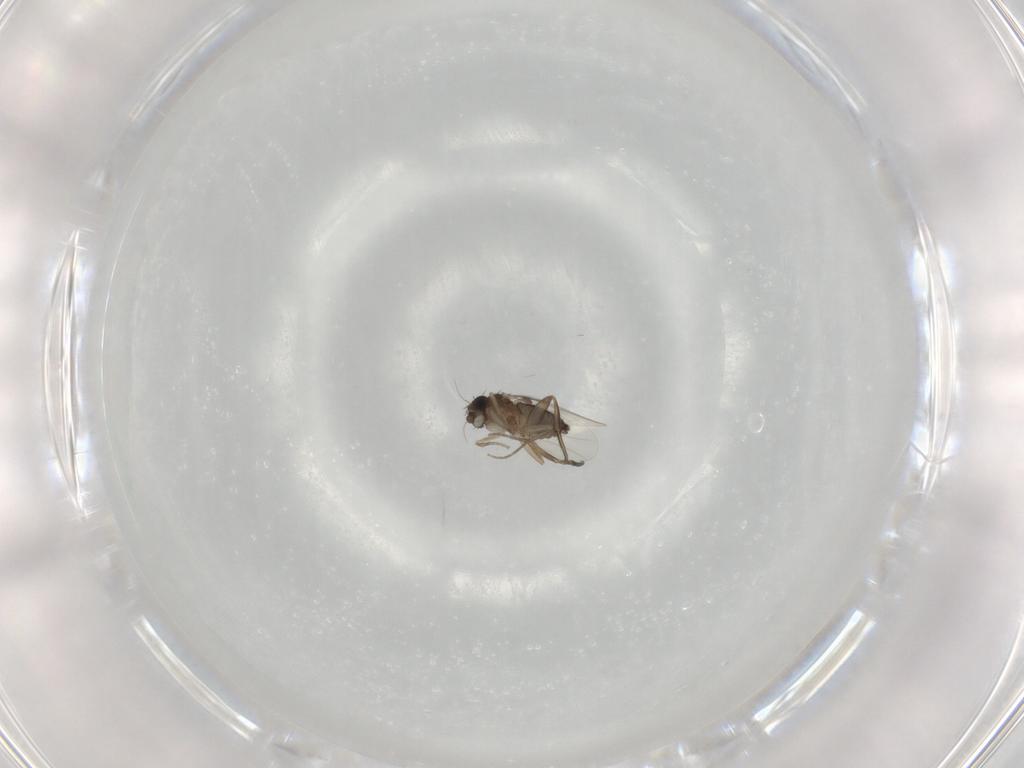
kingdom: Animalia
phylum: Arthropoda
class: Insecta
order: Diptera
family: Phoridae
